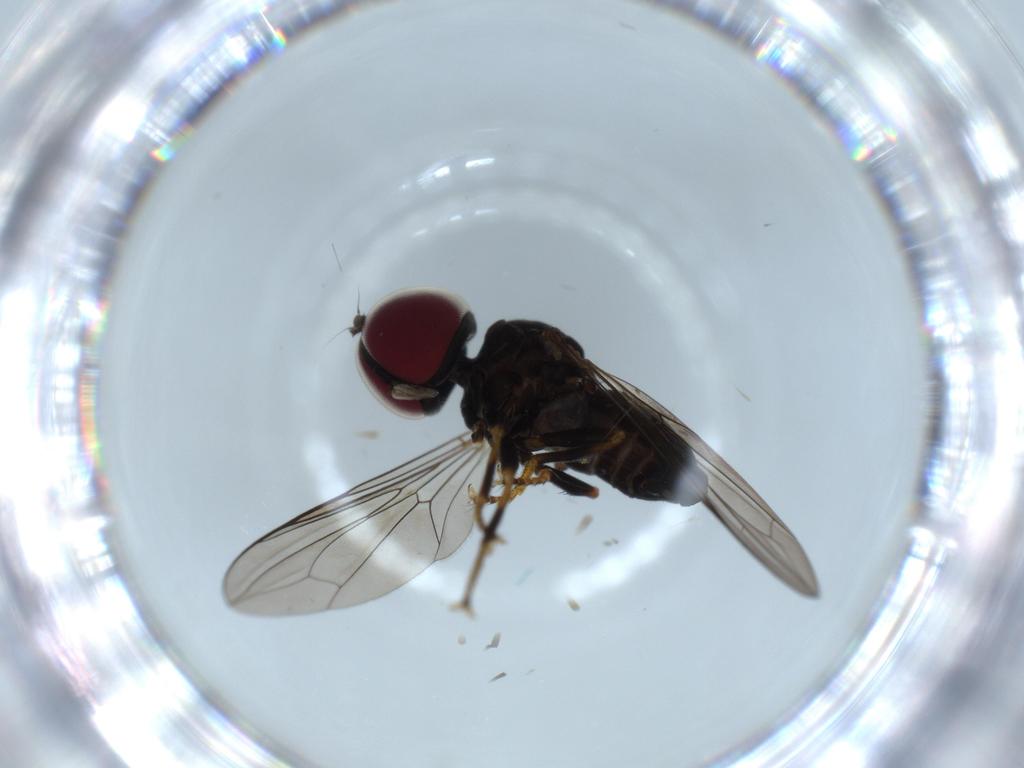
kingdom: Animalia
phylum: Arthropoda
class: Insecta
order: Diptera
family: Pipunculidae
